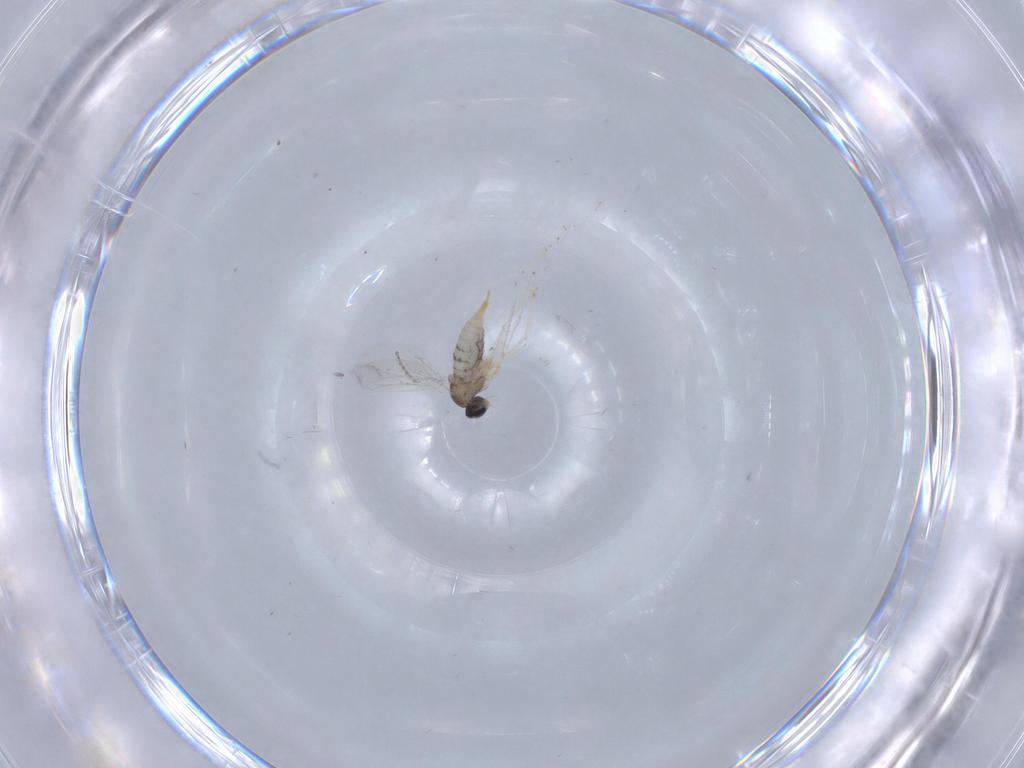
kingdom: Animalia
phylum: Arthropoda
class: Insecta
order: Diptera
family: Cecidomyiidae
